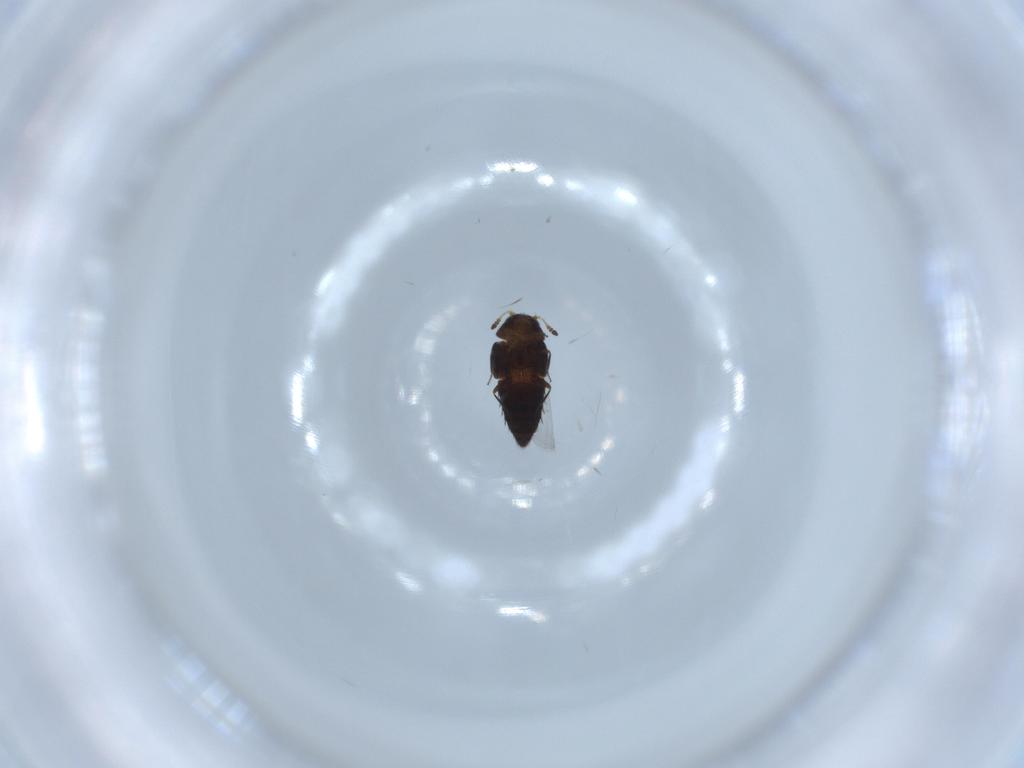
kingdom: Animalia
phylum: Arthropoda
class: Insecta
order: Coleoptera
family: Staphylinidae
